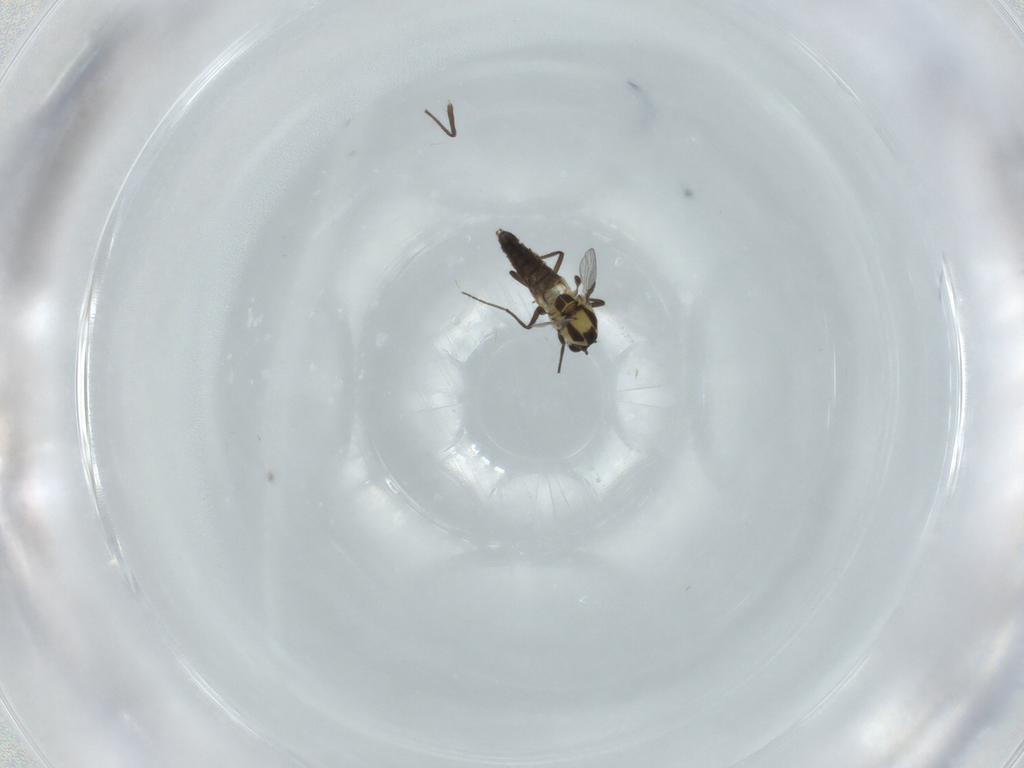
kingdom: Animalia
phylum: Arthropoda
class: Insecta
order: Diptera
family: Chironomidae
